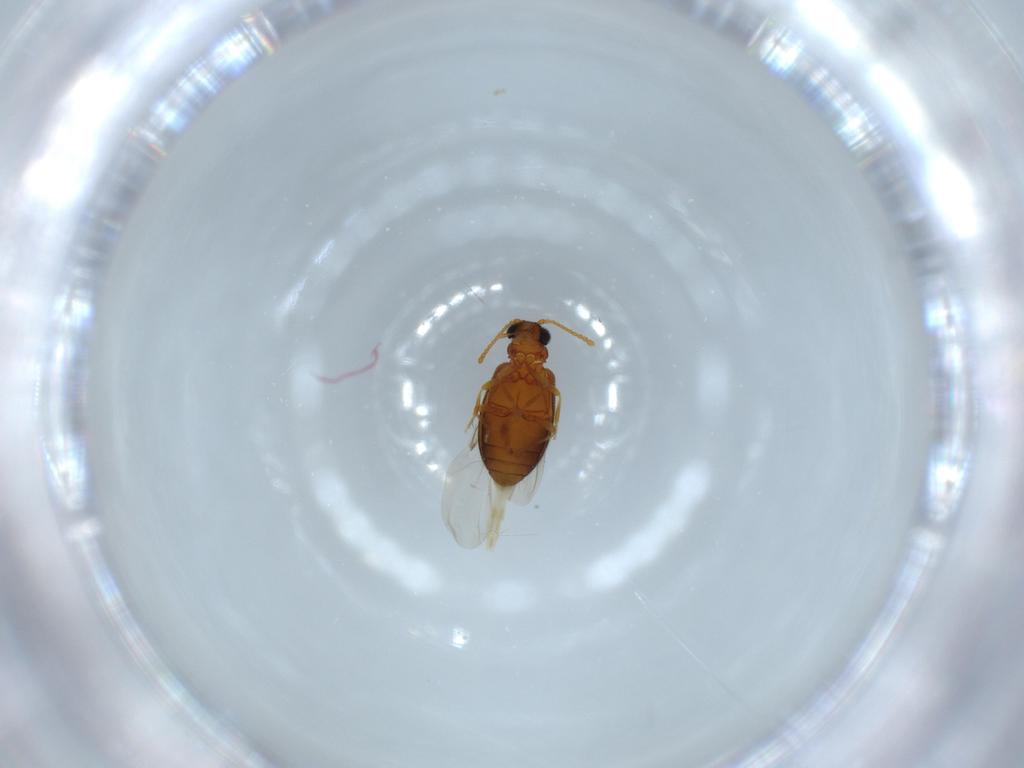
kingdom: Animalia
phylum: Arthropoda
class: Insecta
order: Coleoptera
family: Aderidae
